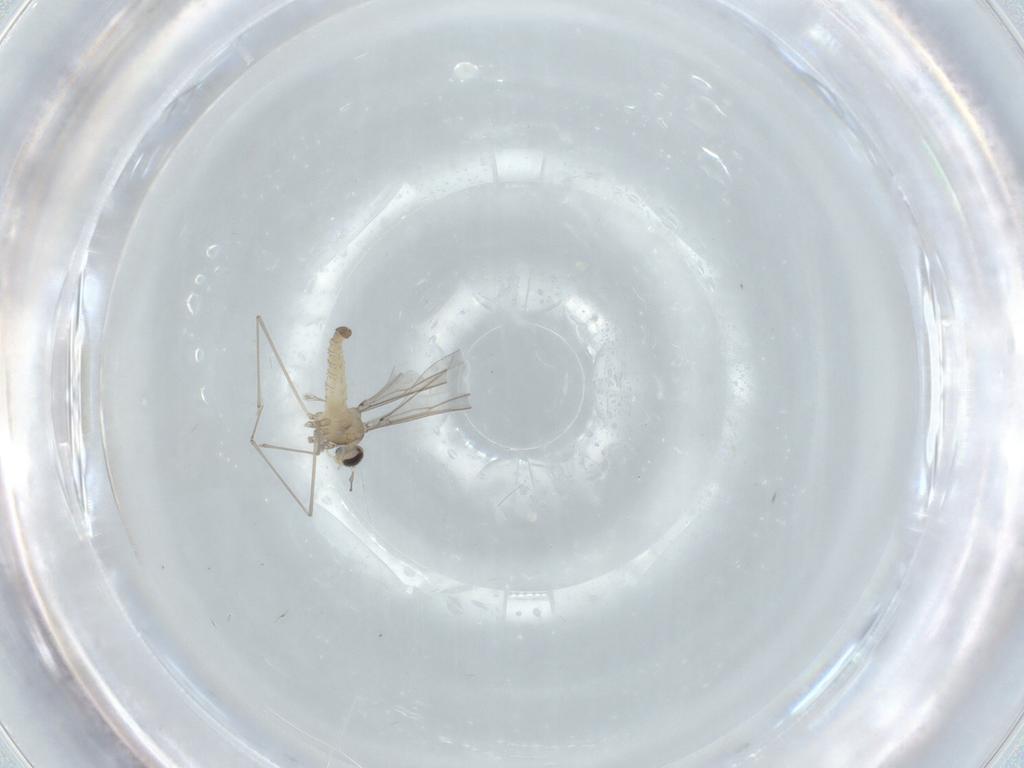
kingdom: Animalia
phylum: Arthropoda
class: Insecta
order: Diptera
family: Cecidomyiidae
